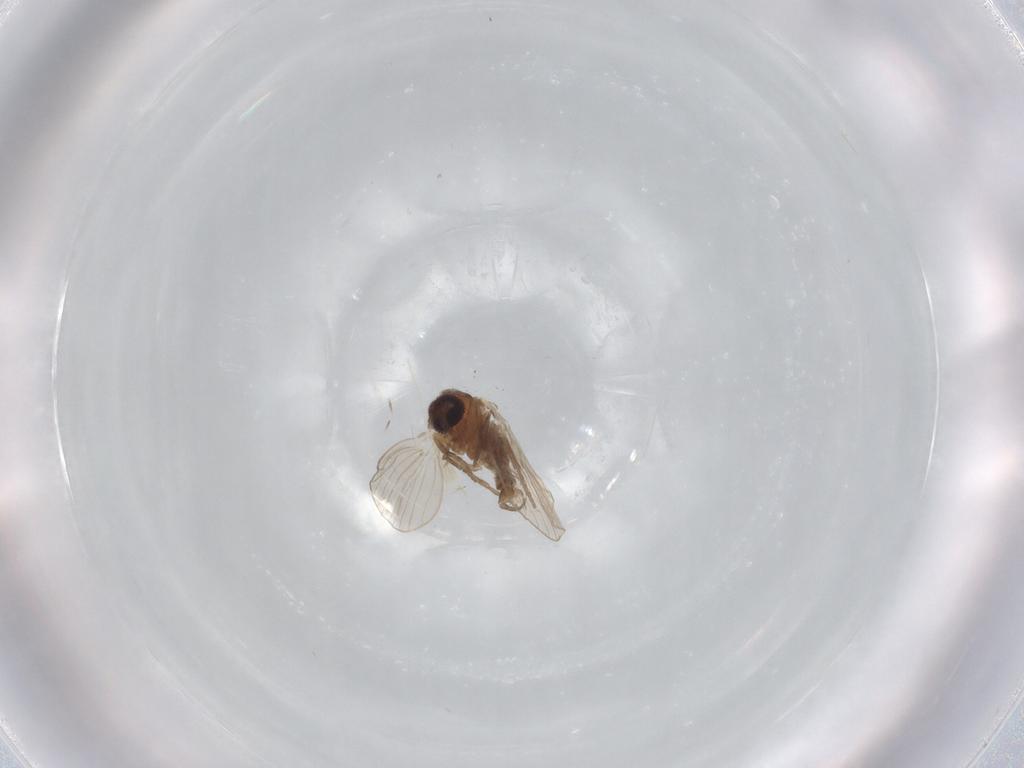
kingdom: Animalia
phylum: Arthropoda
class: Insecta
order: Diptera
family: Psychodidae
